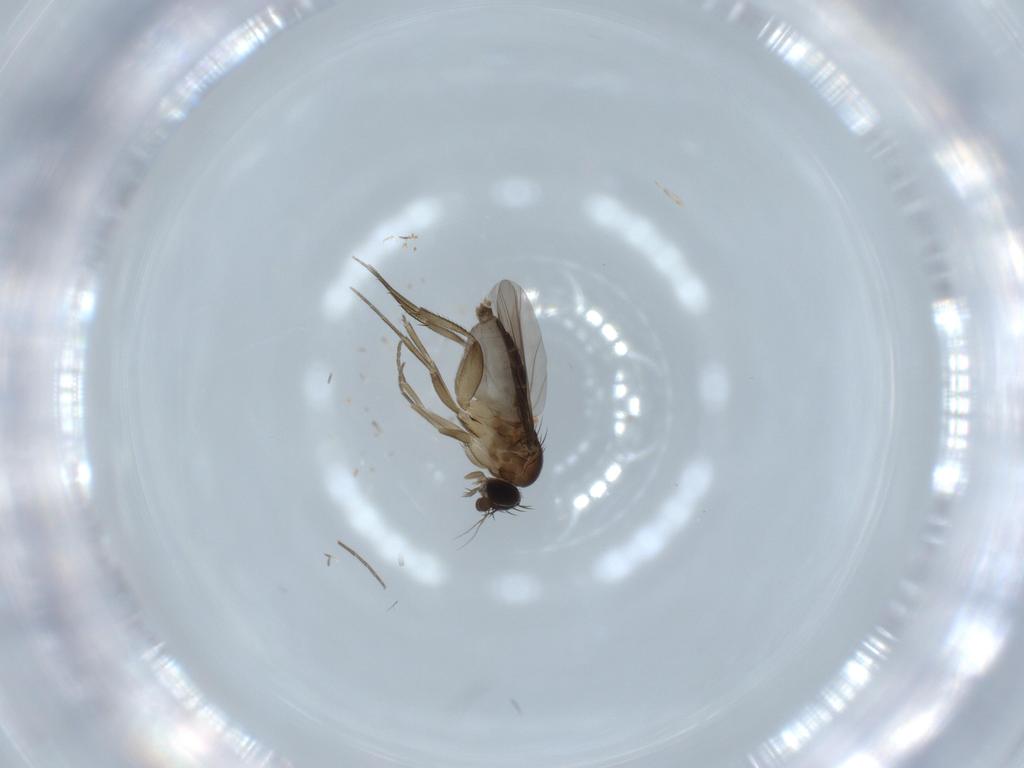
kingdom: Animalia
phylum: Arthropoda
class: Insecta
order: Diptera
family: Phoridae
